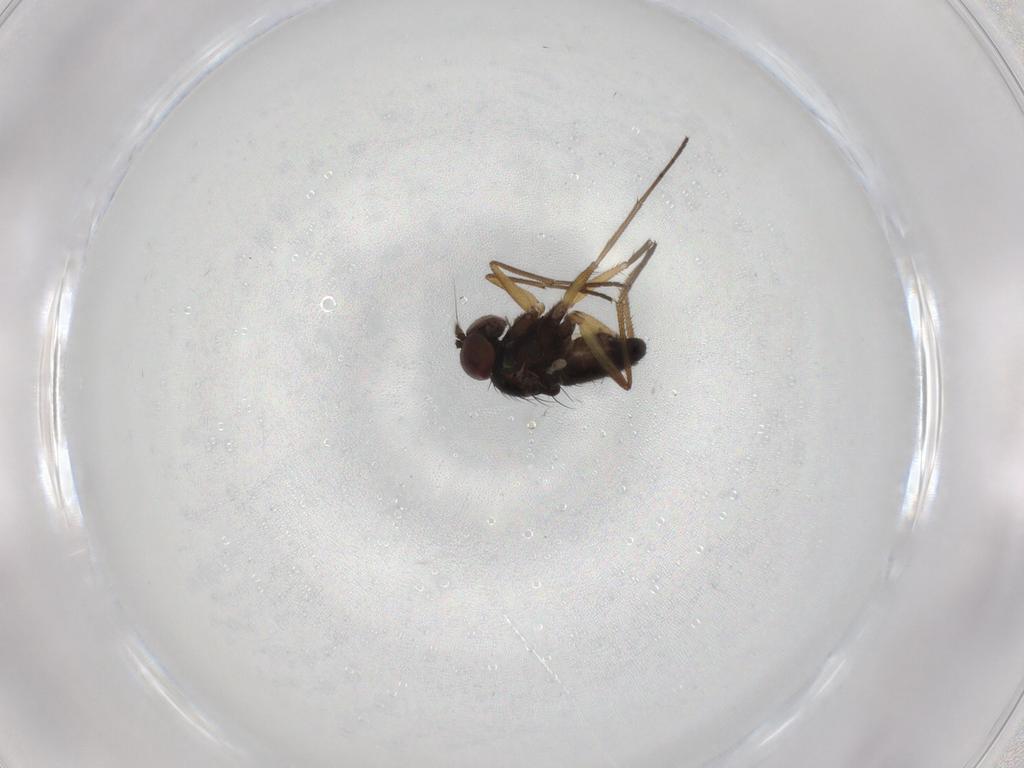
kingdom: Animalia
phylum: Arthropoda
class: Insecta
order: Diptera
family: Dolichopodidae
